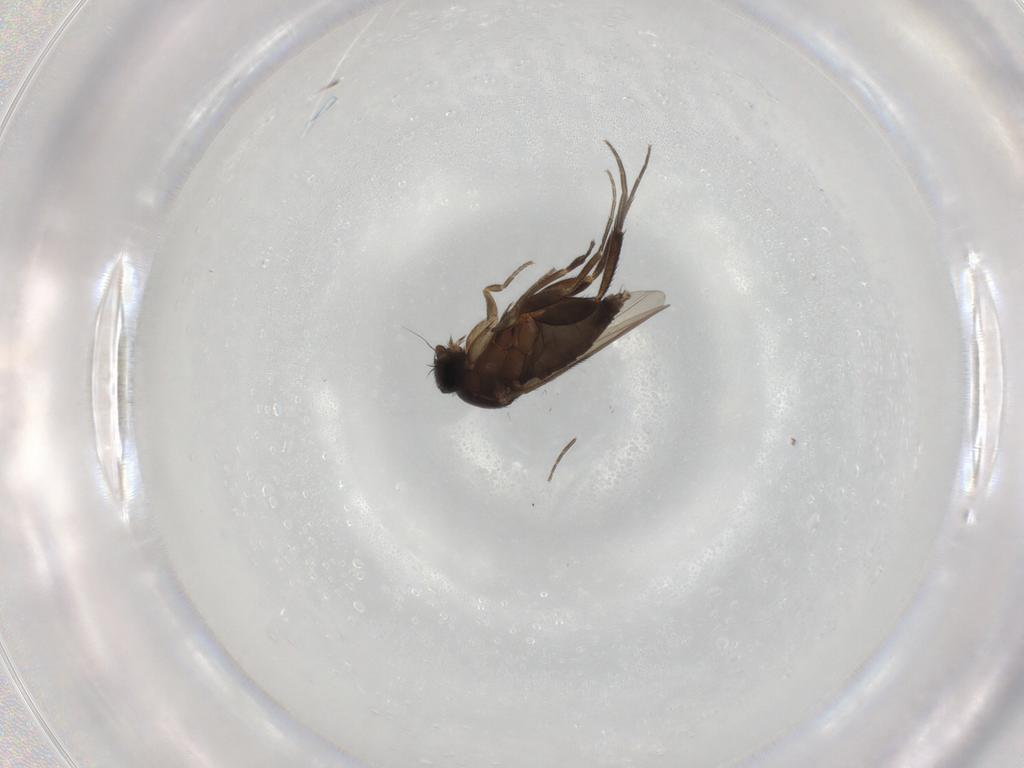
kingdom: Animalia
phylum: Arthropoda
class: Insecta
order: Diptera
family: Phoridae
